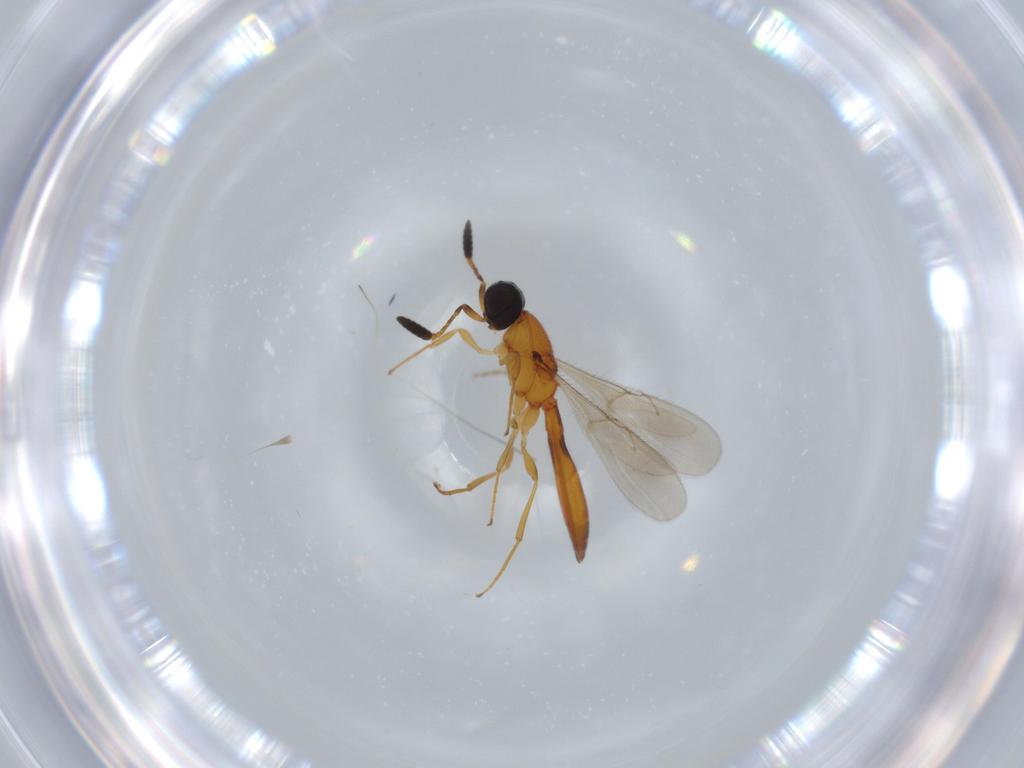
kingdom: Animalia
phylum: Arthropoda
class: Insecta
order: Hymenoptera
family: Scelionidae
